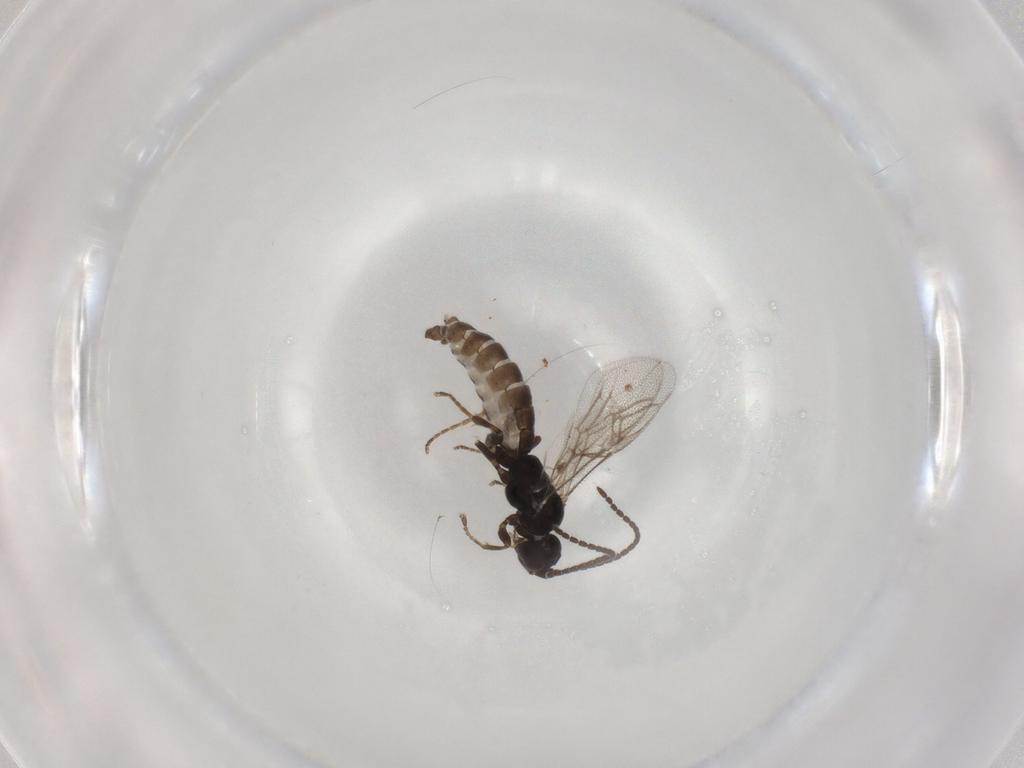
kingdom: Animalia
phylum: Arthropoda
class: Insecta
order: Hymenoptera
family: Ichneumonidae
